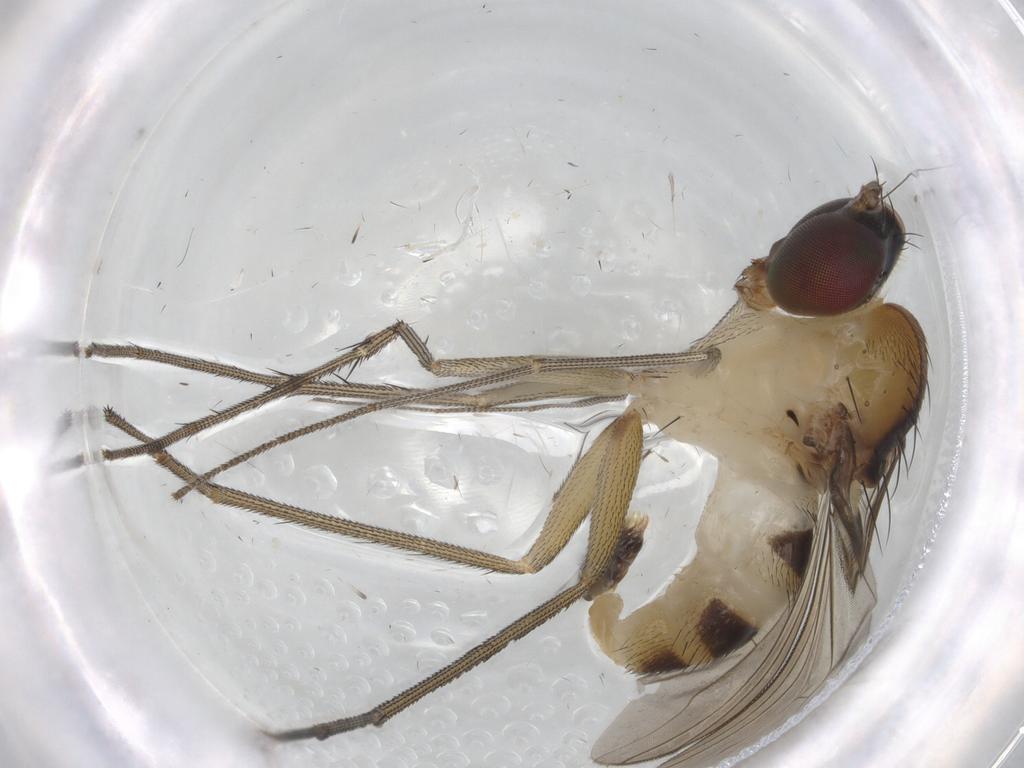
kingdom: Animalia
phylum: Arthropoda
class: Insecta
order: Diptera
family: Dolichopodidae
